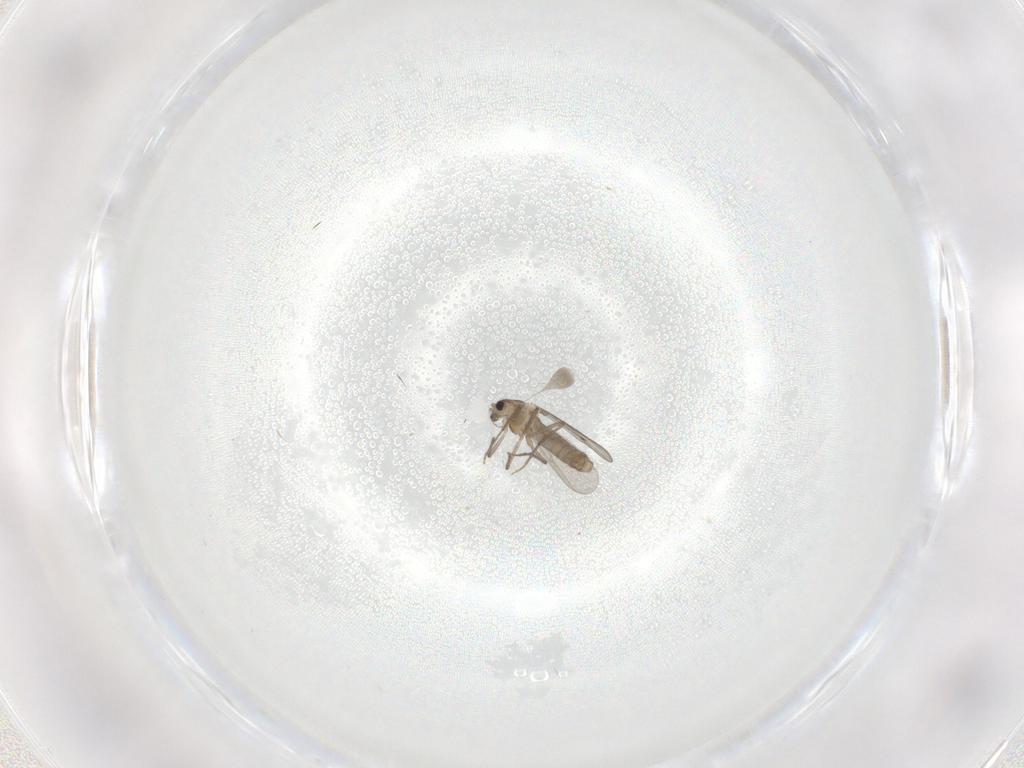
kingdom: Animalia
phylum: Arthropoda
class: Insecta
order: Diptera
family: Chironomidae
